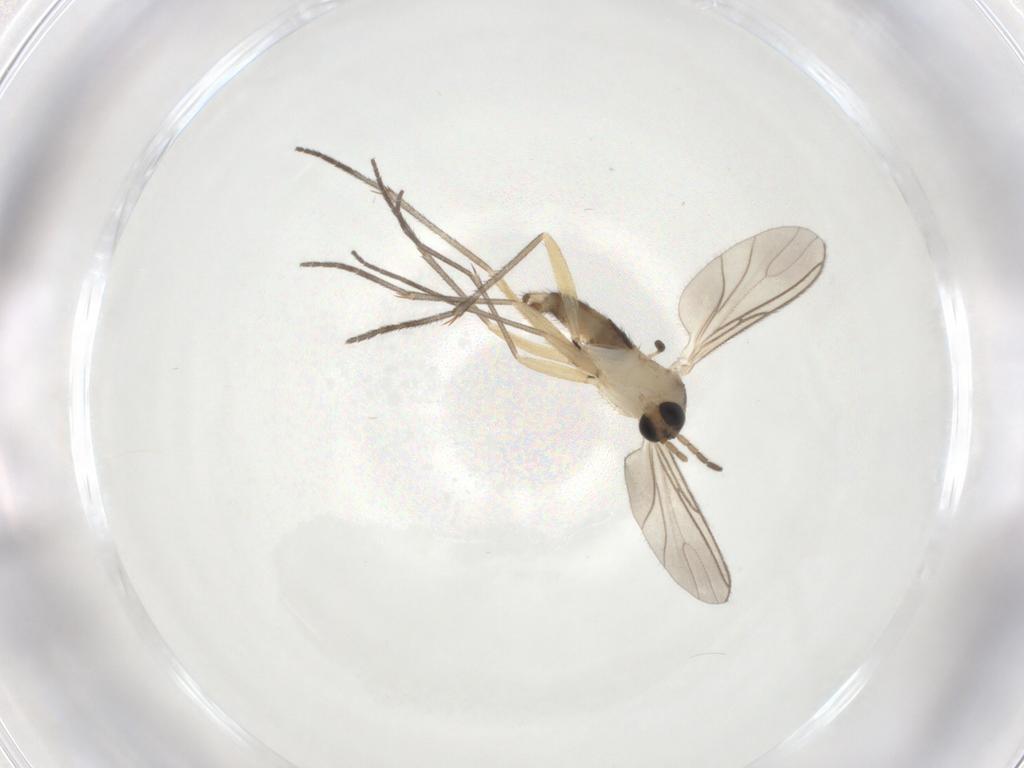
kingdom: Animalia
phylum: Arthropoda
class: Insecta
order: Diptera
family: Sciaridae
